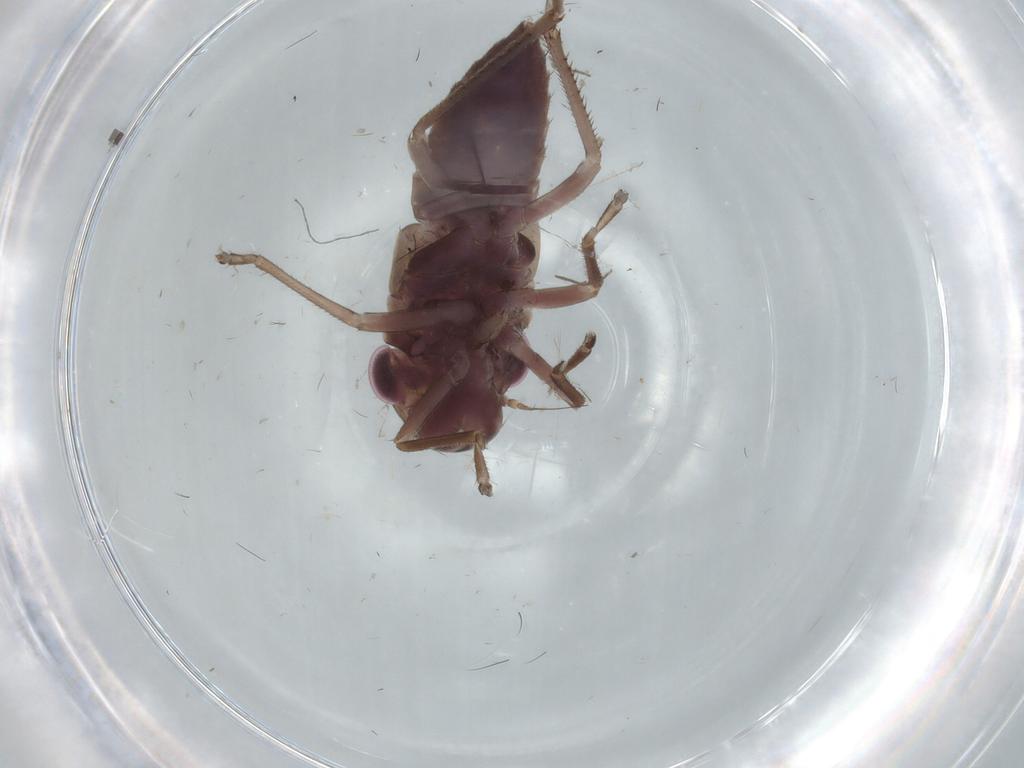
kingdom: Animalia
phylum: Arthropoda
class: Insecta
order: Hemiptera
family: Cicadellidae
